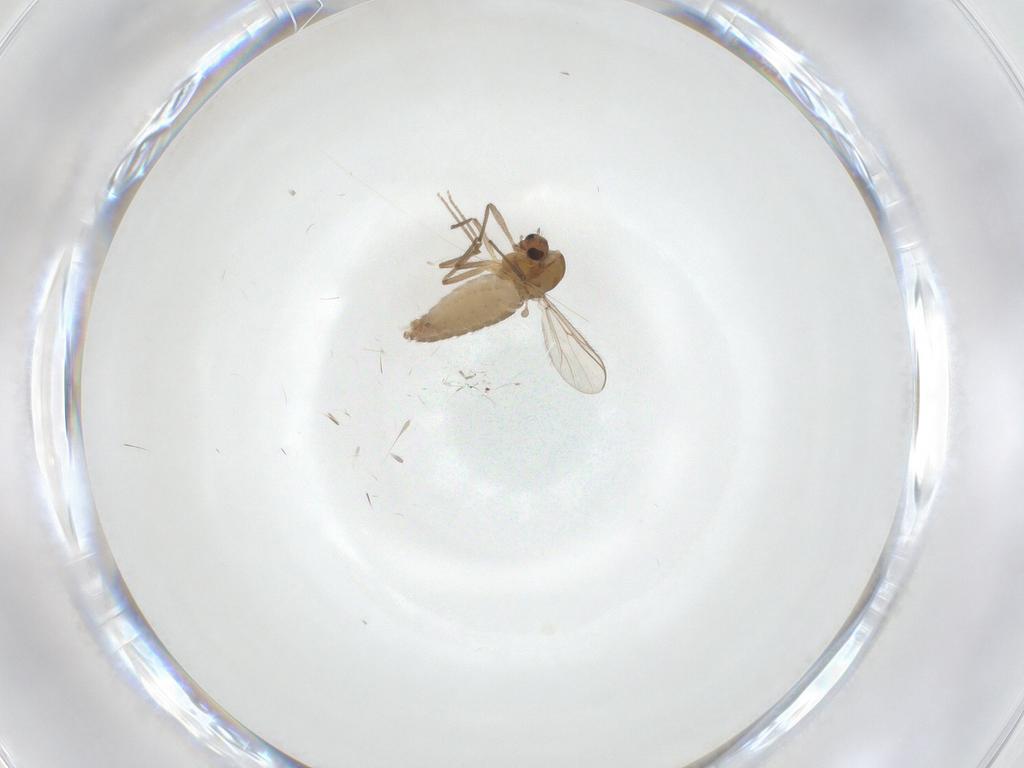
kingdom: Animalia
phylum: Arthropoda
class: Insecta
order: Diptera
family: Chironomidae
